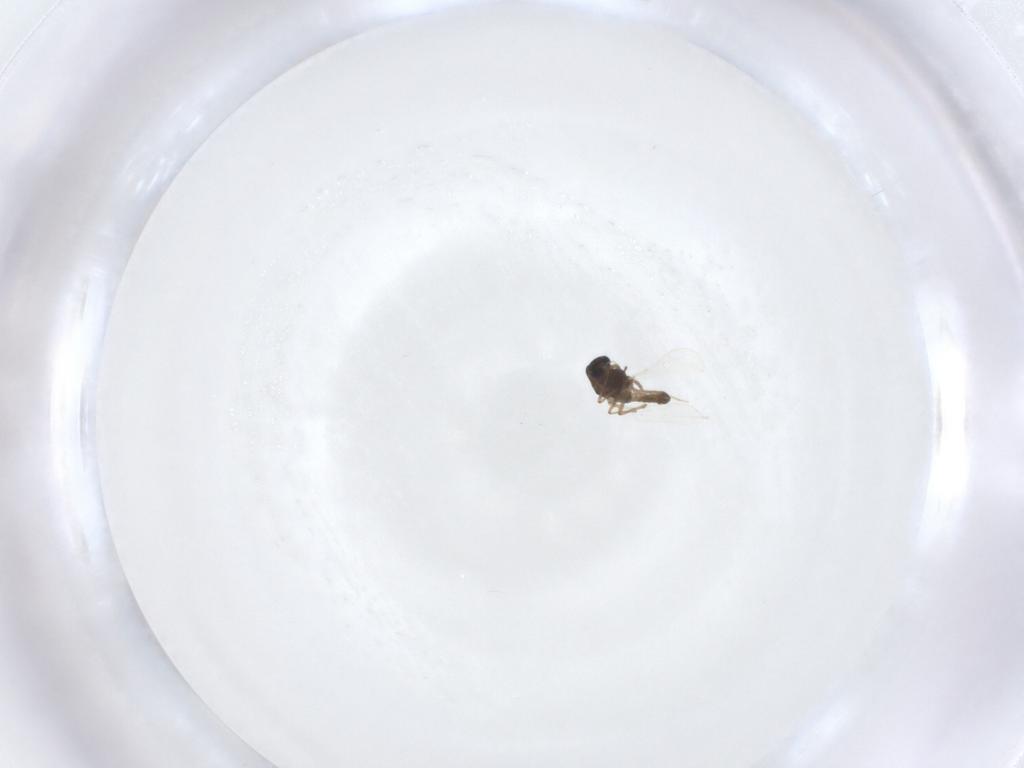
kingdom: Animalia
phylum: Arthropoda
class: Insecta
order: Diptera
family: Chironomidae
